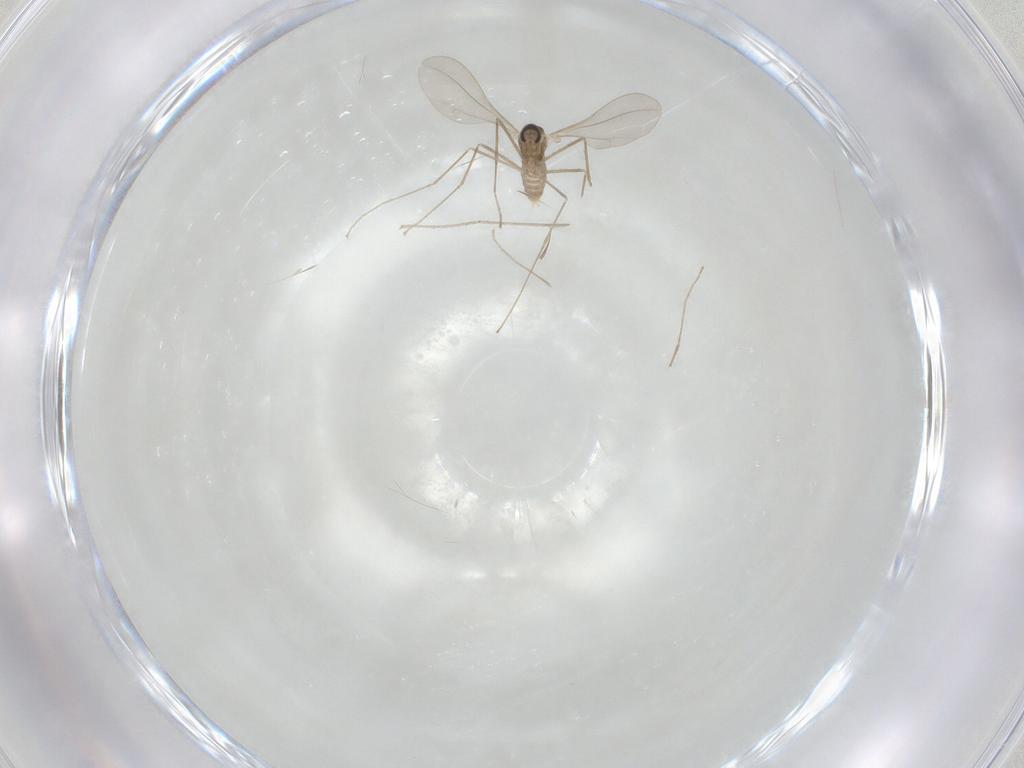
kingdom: Animalia
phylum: Arthropoda
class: Insecta
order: Diptera
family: Cecidomyiidae
